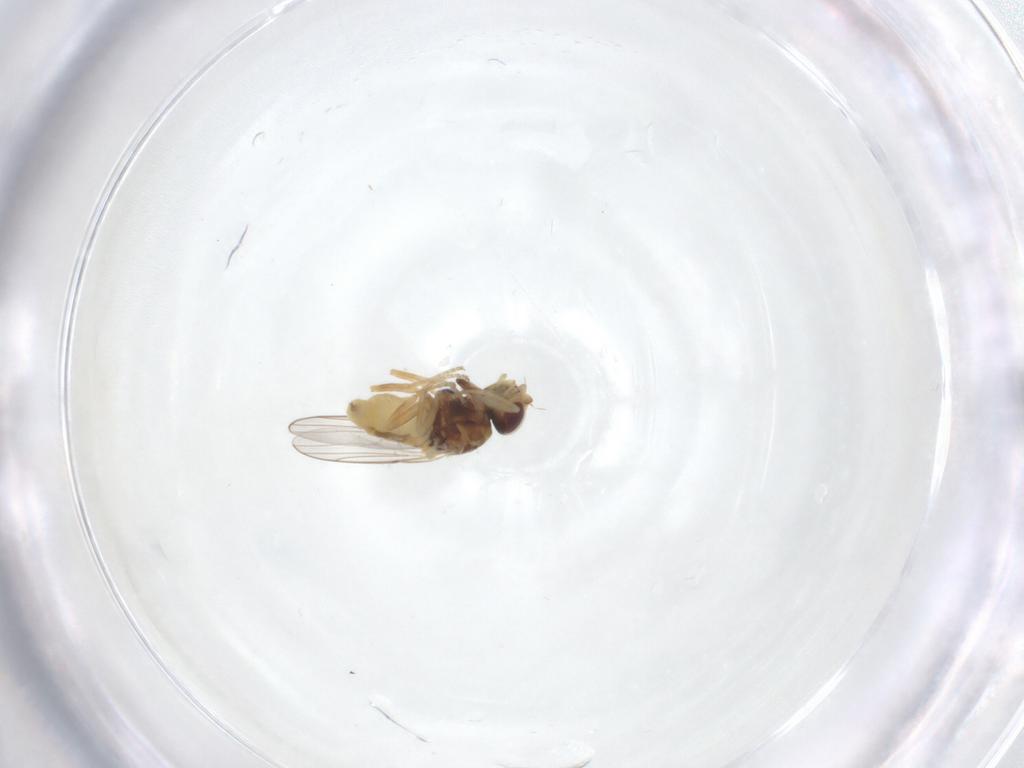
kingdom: Animalia
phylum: Arthropoda
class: Insecta
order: Diptera
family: Chloropidae
